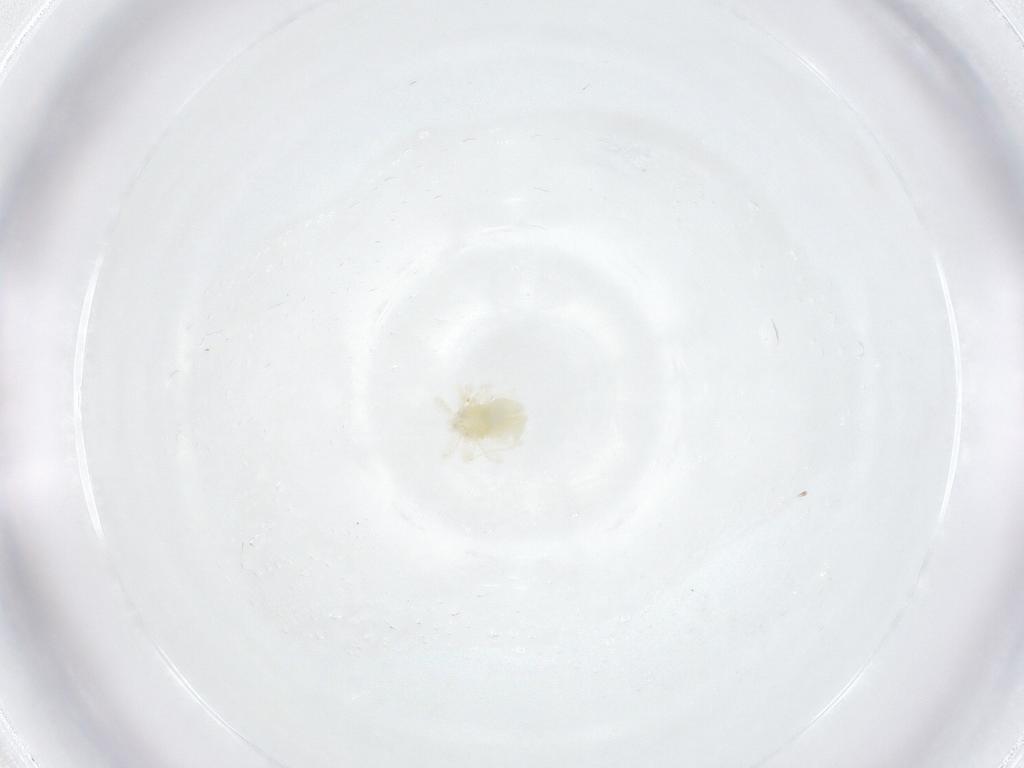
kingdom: Animalia
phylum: Arthropoda
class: Arachnida
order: Trombidiformes
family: Anystidae
